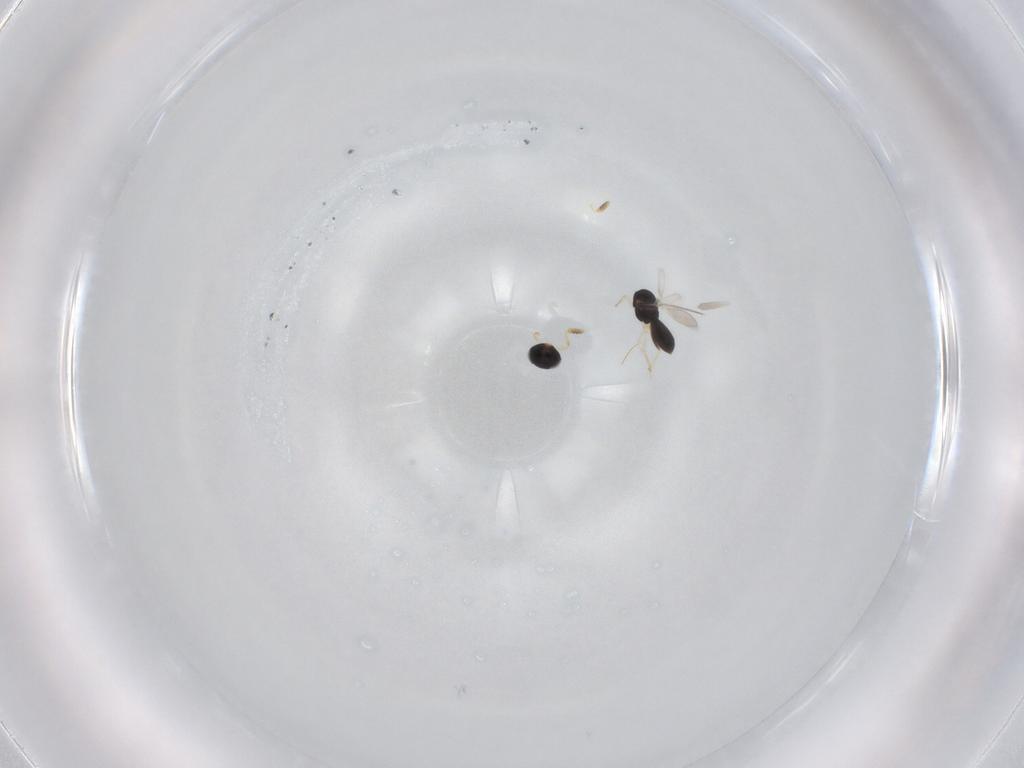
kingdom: Animalia
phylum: Arthropoda
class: Insecta
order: Hymenoptera
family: Scelionidae
